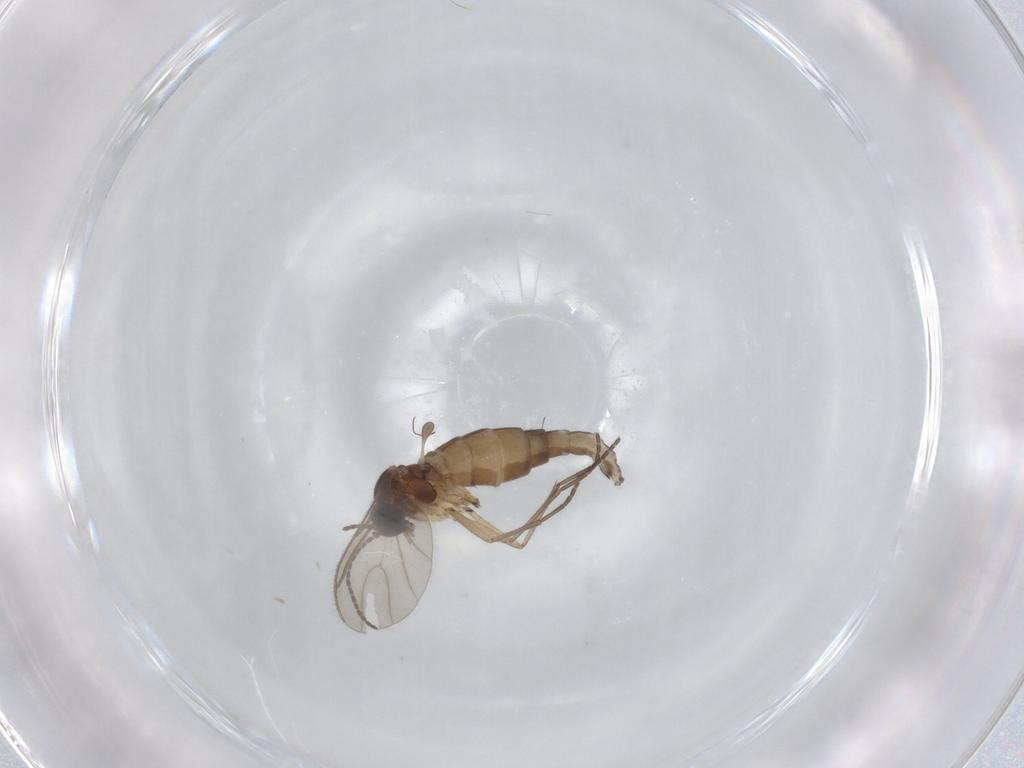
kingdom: Animalia
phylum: Arthropoda
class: Insecta
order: Diptera
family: Sciaridae
